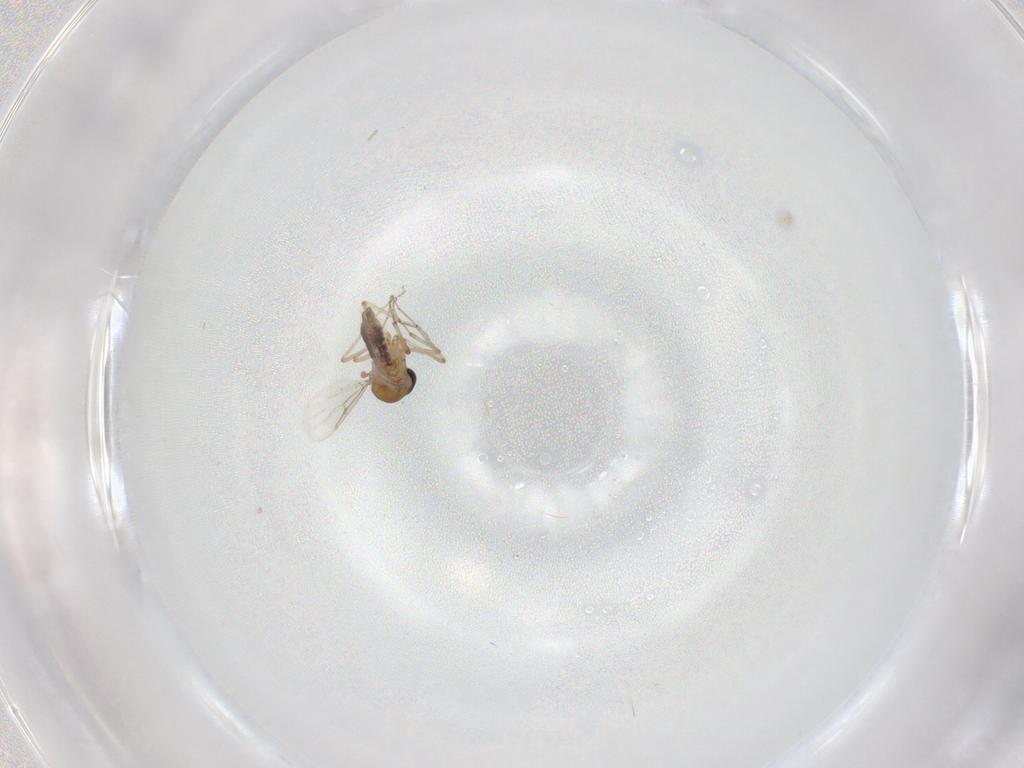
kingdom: Animalia
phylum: Arthropoda
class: Insecta
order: Diptera
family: Cecidomyiidae
